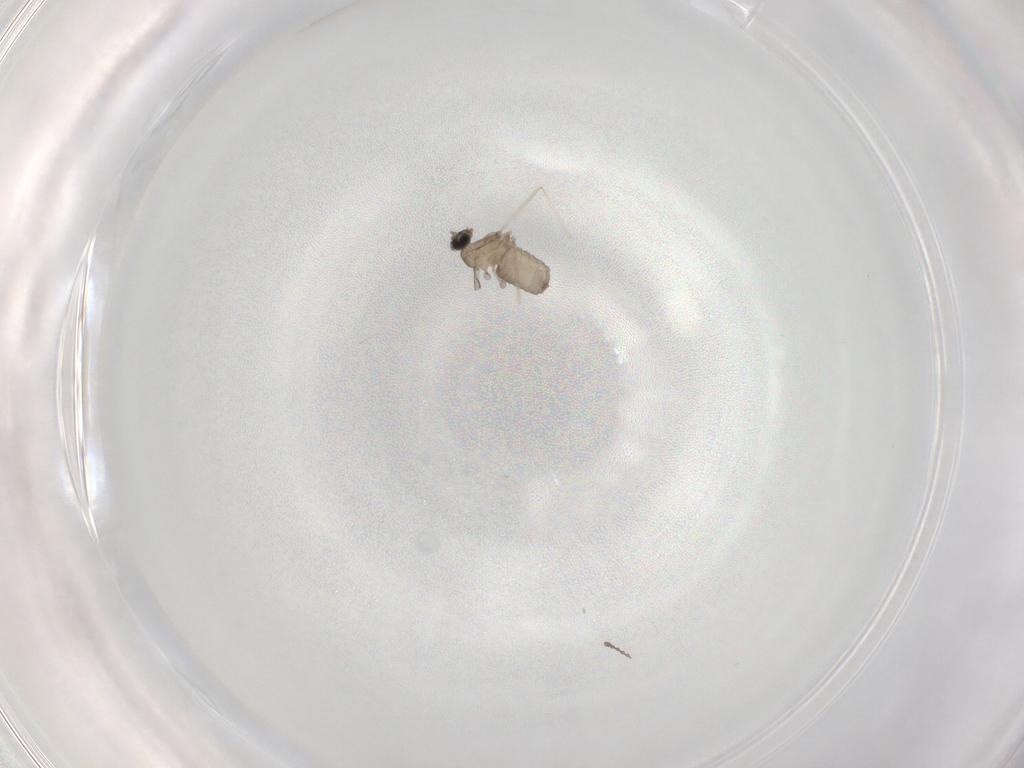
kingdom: Animalia
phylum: Arthropoda
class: Insecta
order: Diptera
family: Cecidomyiidae
